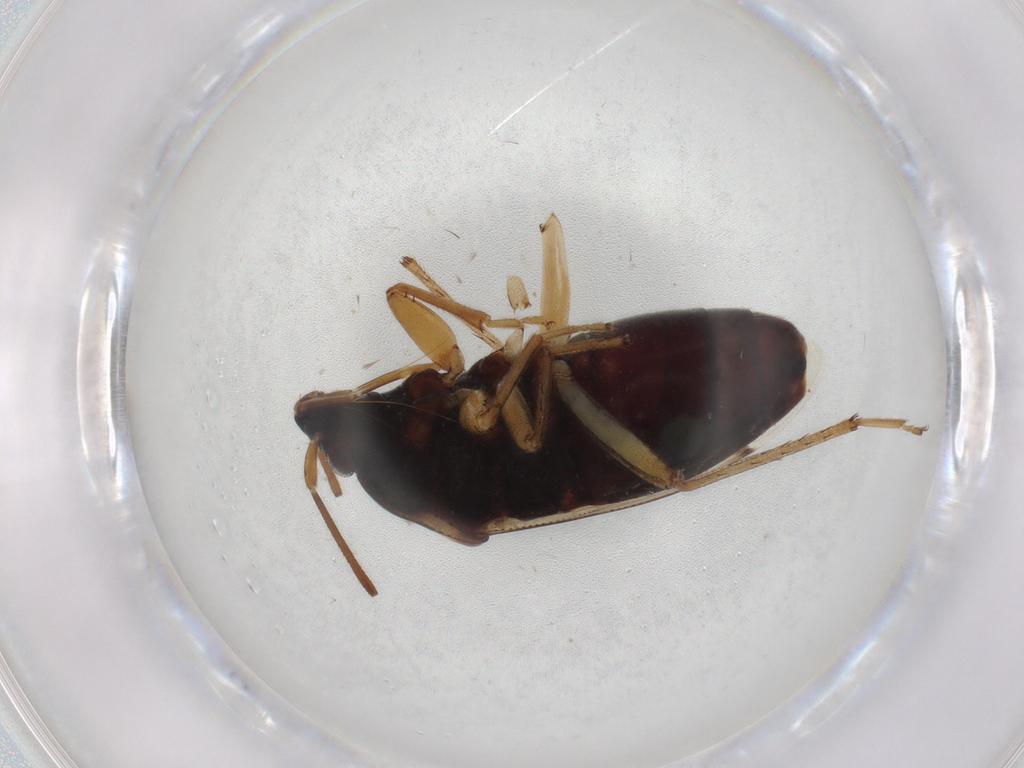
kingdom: Animalia
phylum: Arthropoda
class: Insecta
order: Hemiptera
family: Rhyparochromidae
